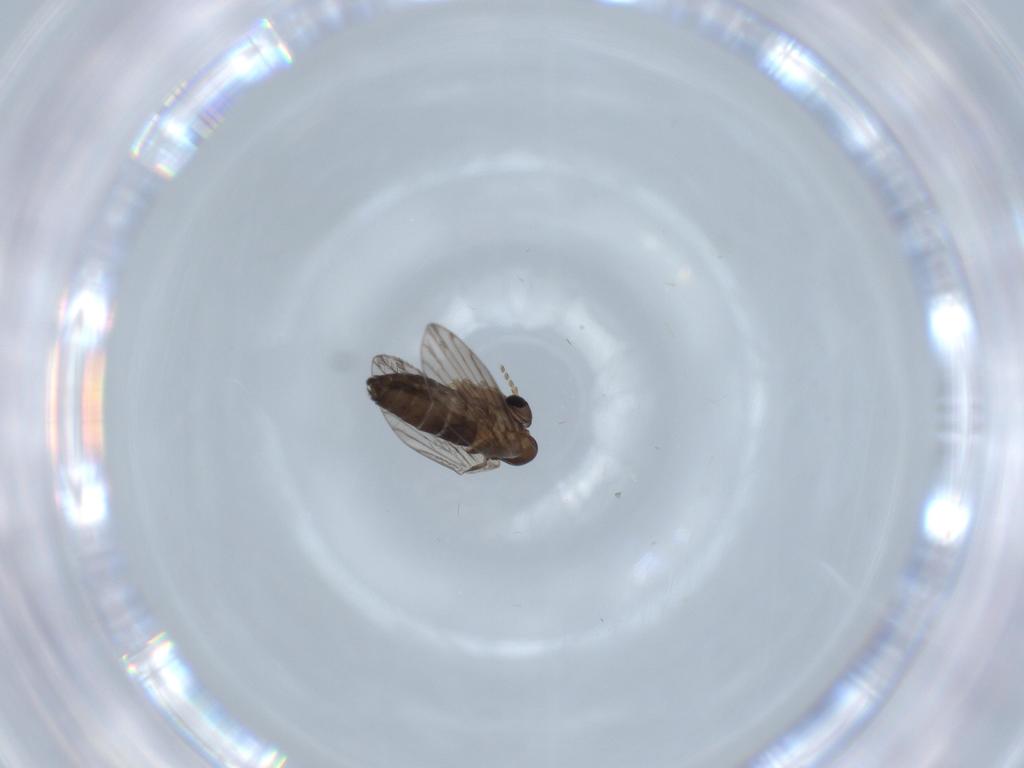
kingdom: Animalia
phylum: Arthropoda
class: Insecta
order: Diptera
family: Psychodidae
